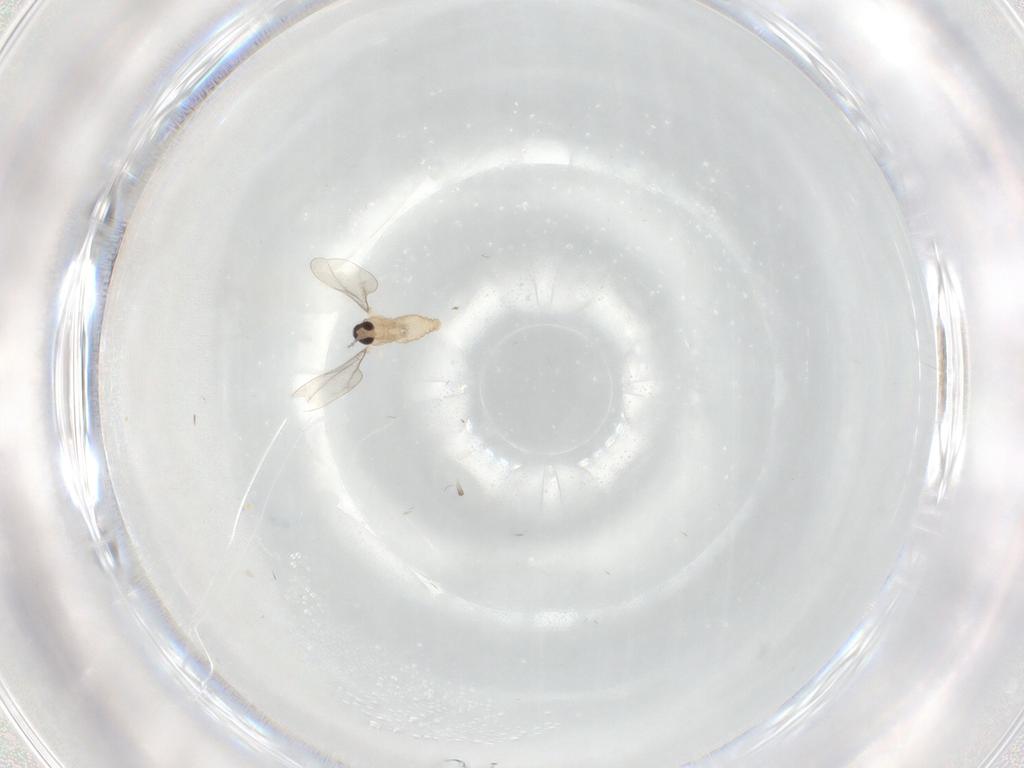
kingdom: Animalia
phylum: Arthropoda
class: Insecta
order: Diptera
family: Cecidomyiidae
